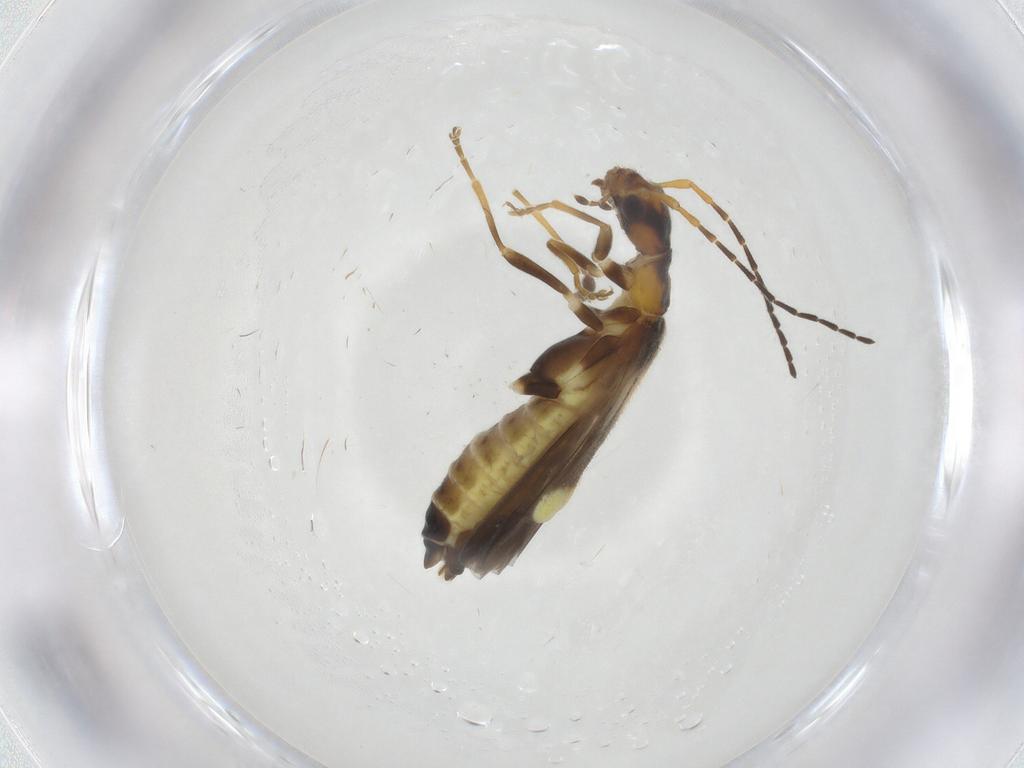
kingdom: Animalia
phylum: Arthropoda
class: Insecta
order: Coleoptera
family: Cantharidae
